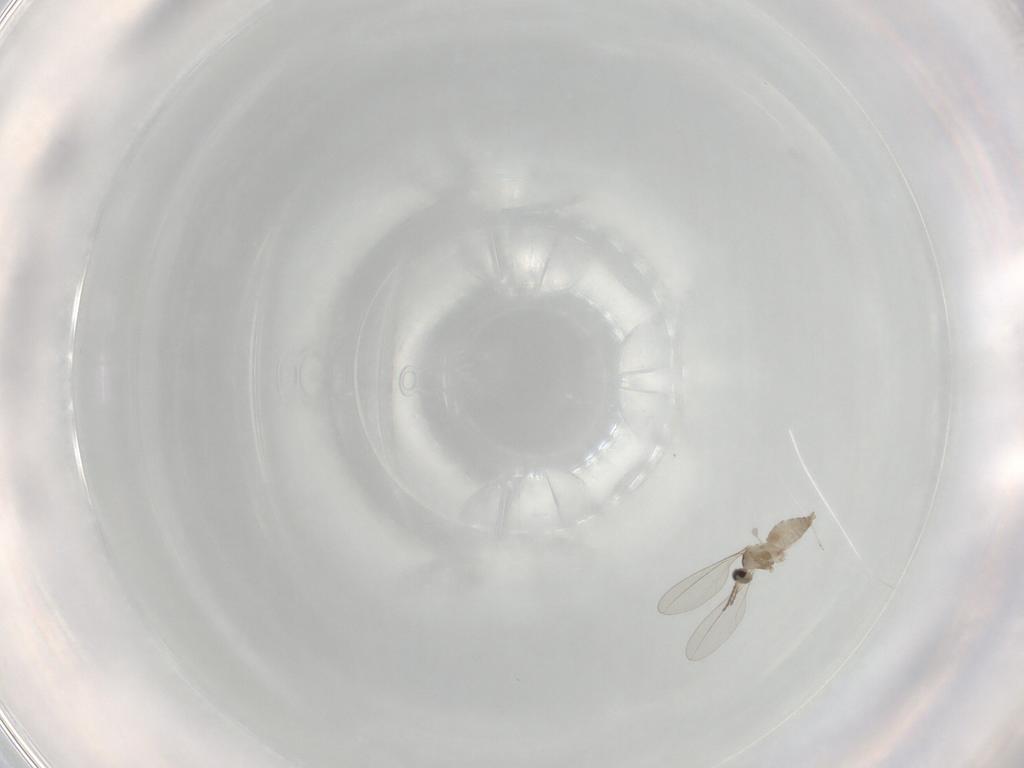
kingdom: Animalia
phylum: Arthropoda
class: Insecta
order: Diptera
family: Cecidomyiidae
